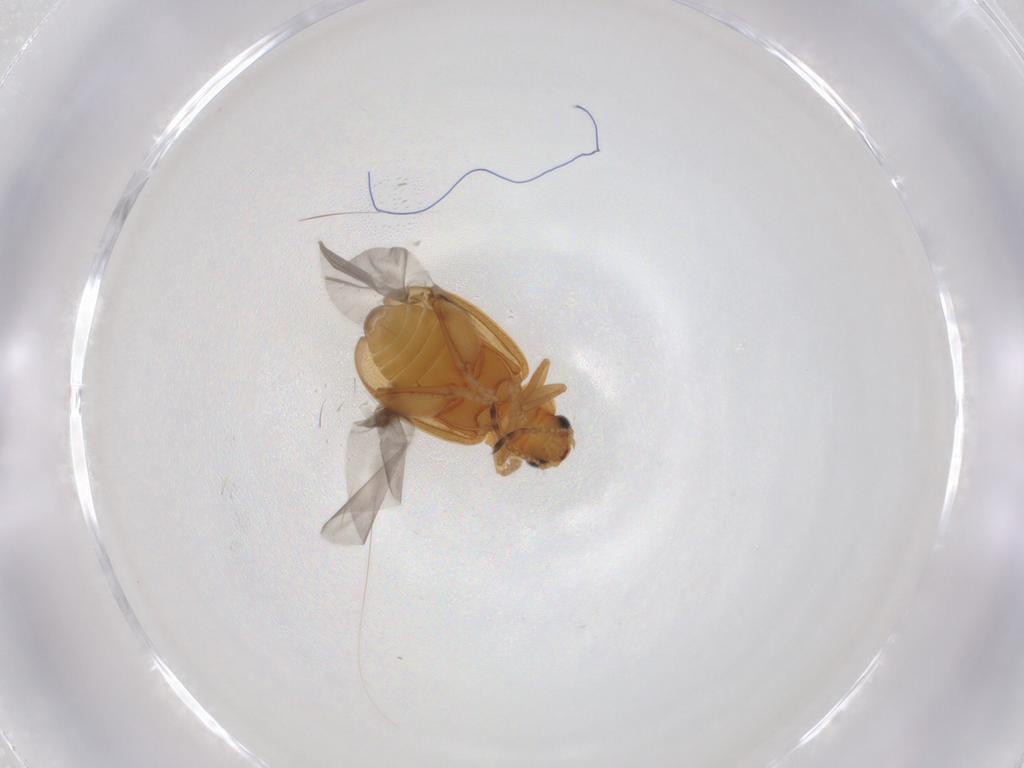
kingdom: Animalia
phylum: Arthropoda
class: Insecta
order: Coleoptera
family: Chrysomelidae
